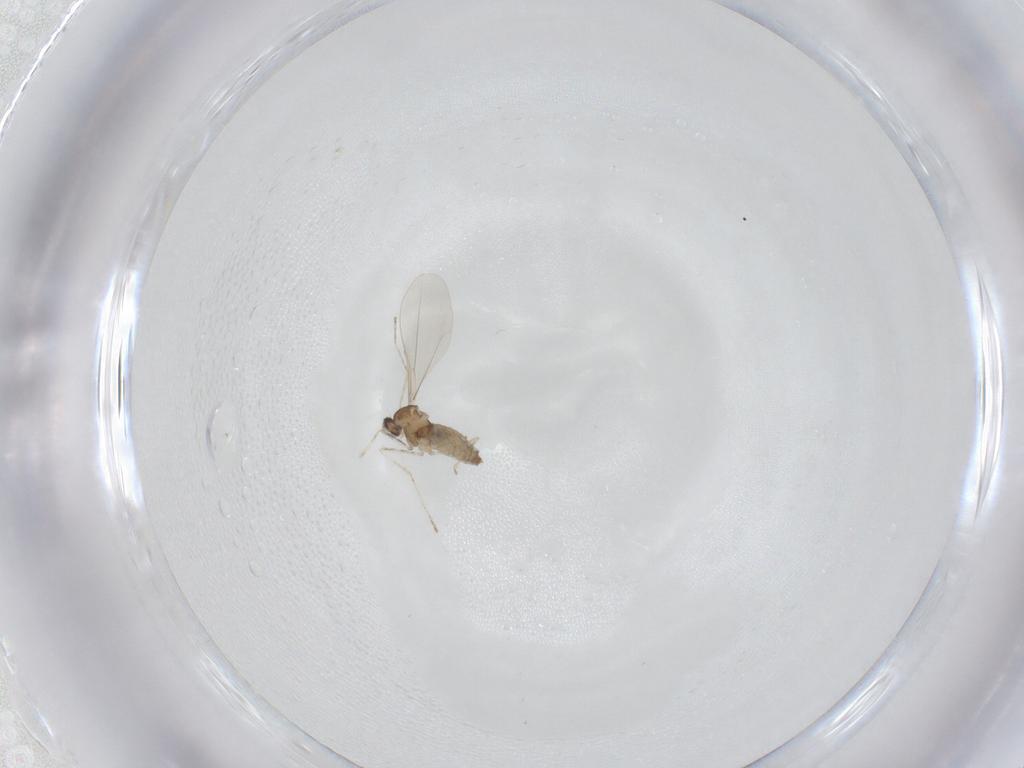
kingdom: Animalia
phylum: Arthropoda
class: Insecta
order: Diptera
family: Cecidomyiidae
